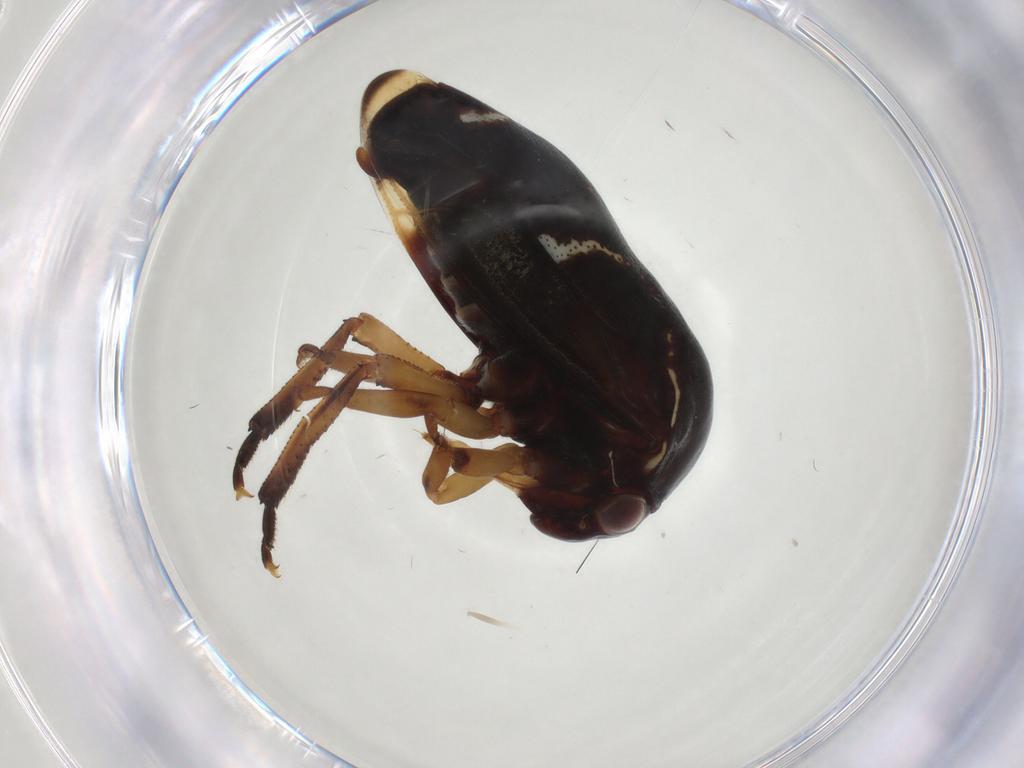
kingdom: Animalia
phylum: Arthropoda
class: Insecta
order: Hemiptera
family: Membracidae
